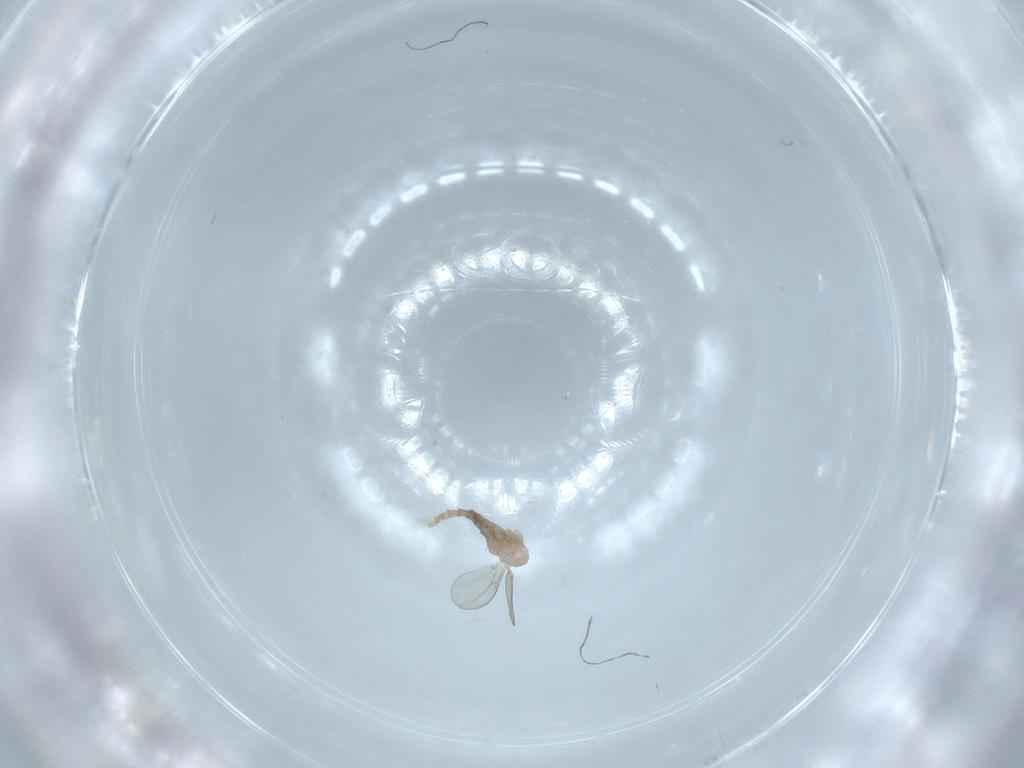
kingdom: Animalia
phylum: Arthropoda
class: Insecta
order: Diptera
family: Cecidomyiidae
